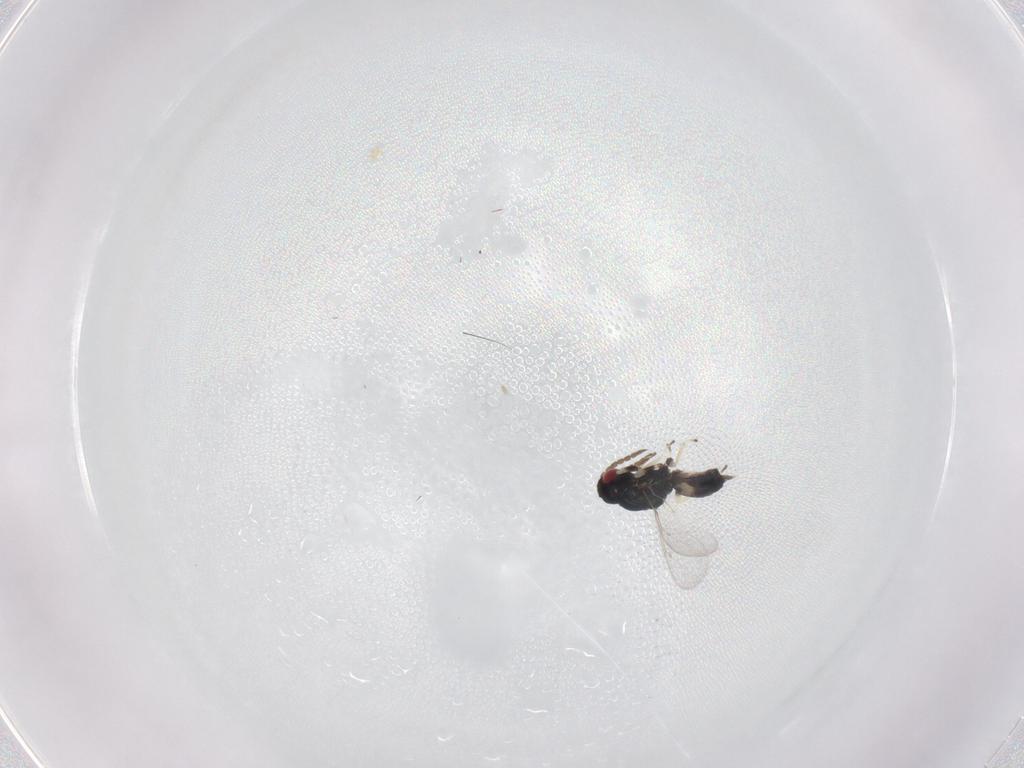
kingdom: Animalia
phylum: Arthropoda
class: Insecta
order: Hymenoptera
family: Eulophidae
